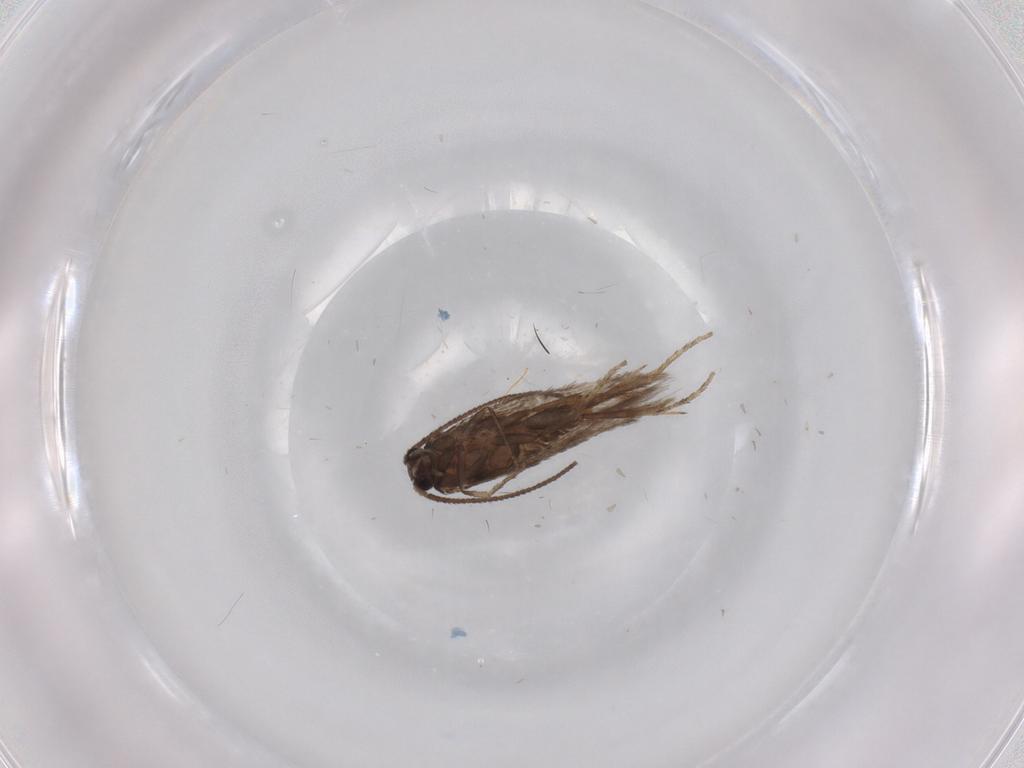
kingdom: Animalia
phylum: Arthropoda
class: Insecta
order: Lepidoptera
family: Nepticulidae
